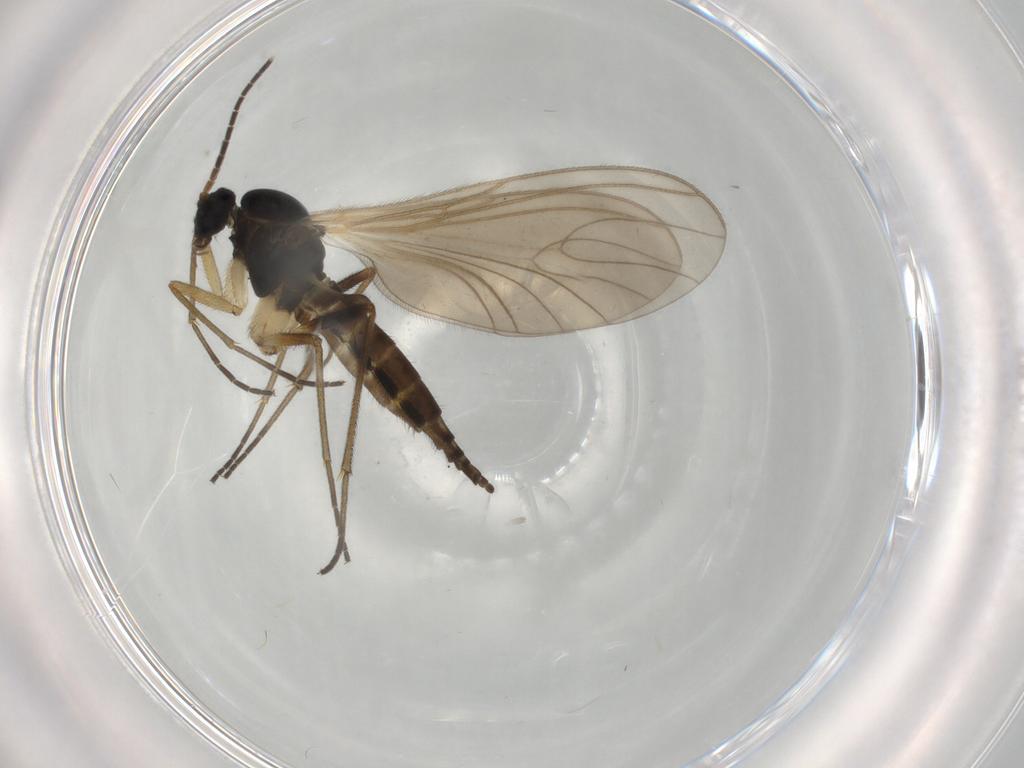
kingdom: Animalia
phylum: Arthropoda
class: Insecta
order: Diptera
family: Sciaridae
